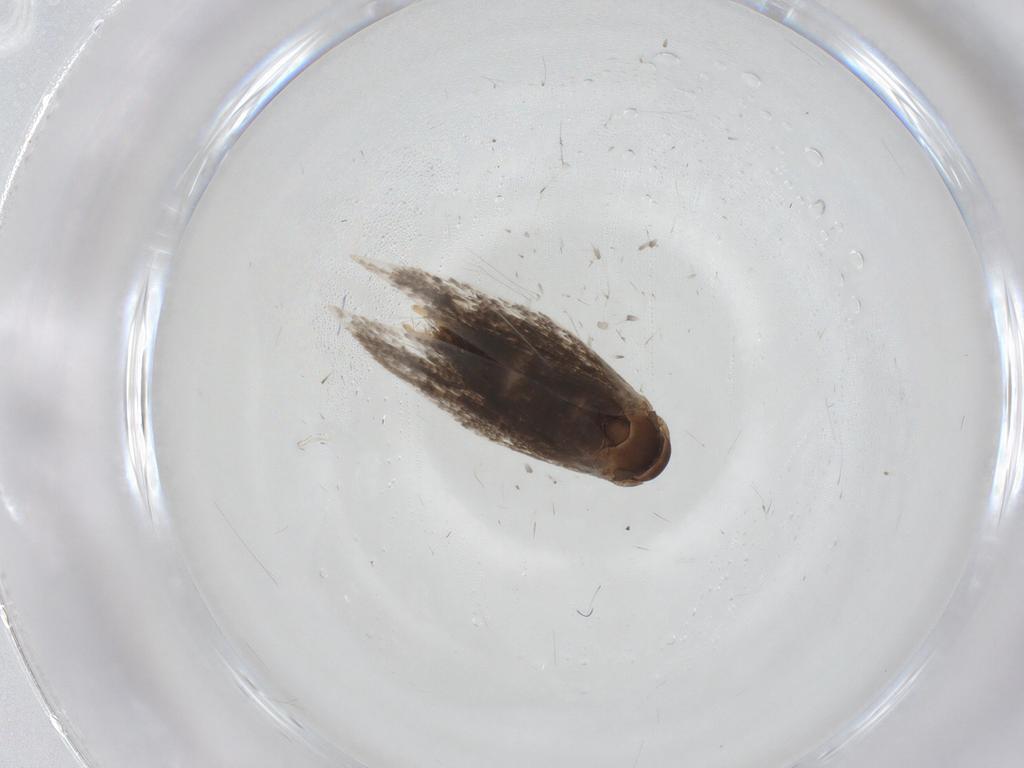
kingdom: Animalia
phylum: Arthropoda
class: Insecta
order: Lepidoptera
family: Elachistidae
